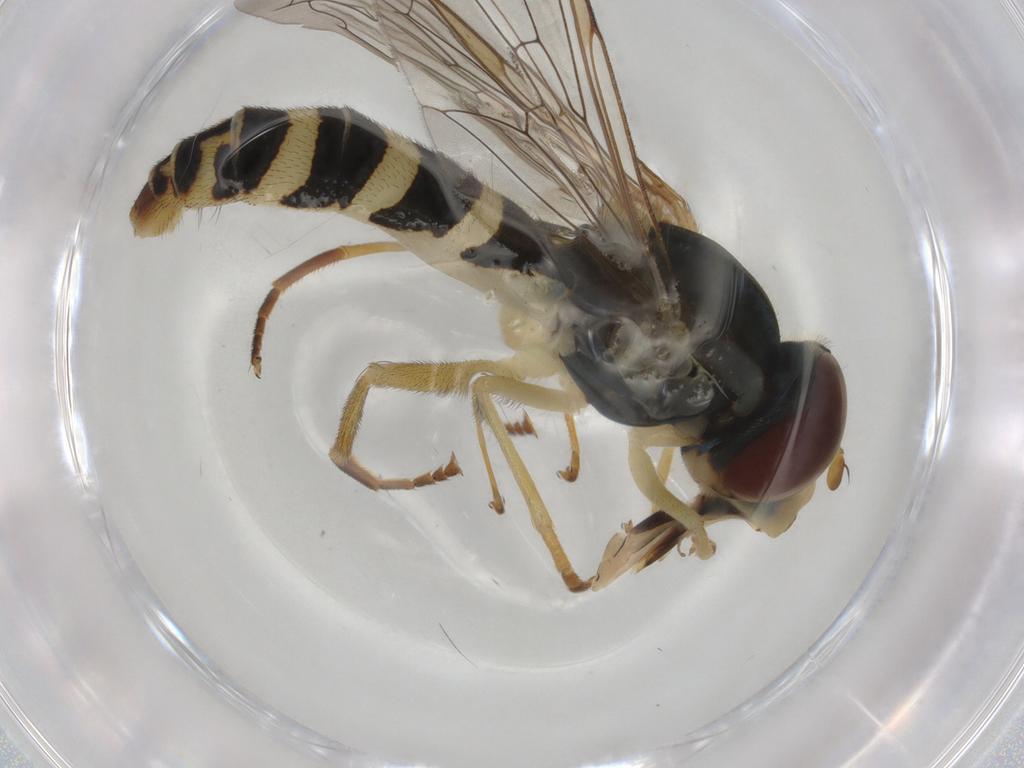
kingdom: Animalia
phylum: Arthropoda
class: Insecta
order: Diptera
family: Syrphidae
